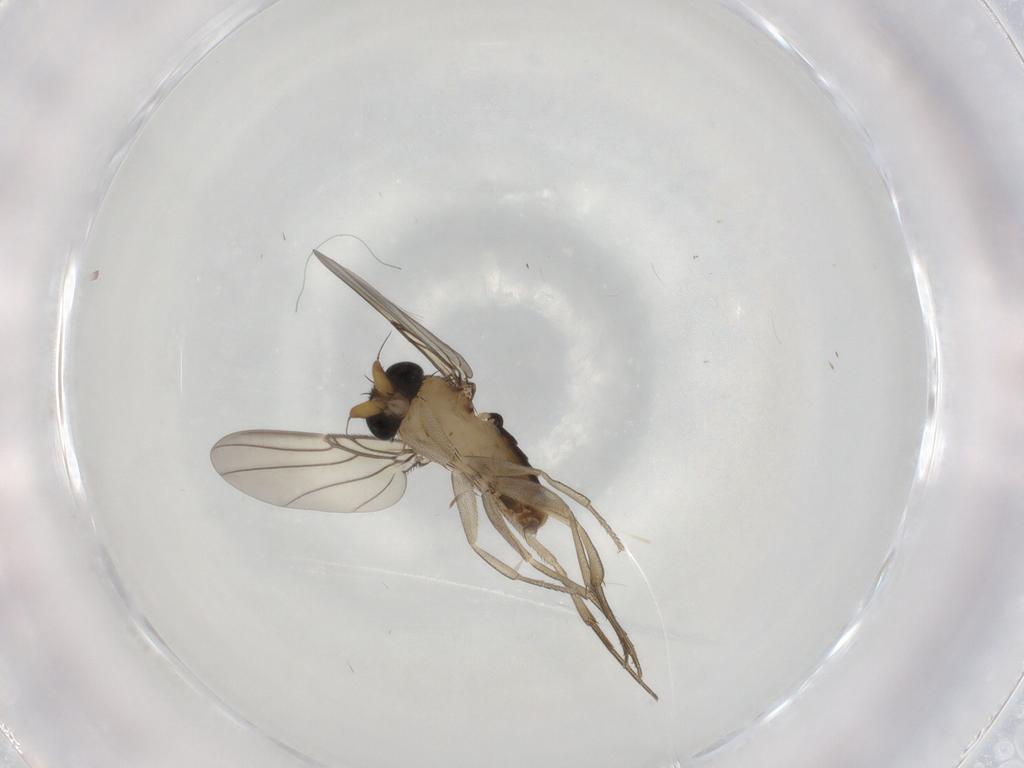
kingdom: Animalia
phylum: Arthropoda
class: Insecta
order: Diptera
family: Phoridae
